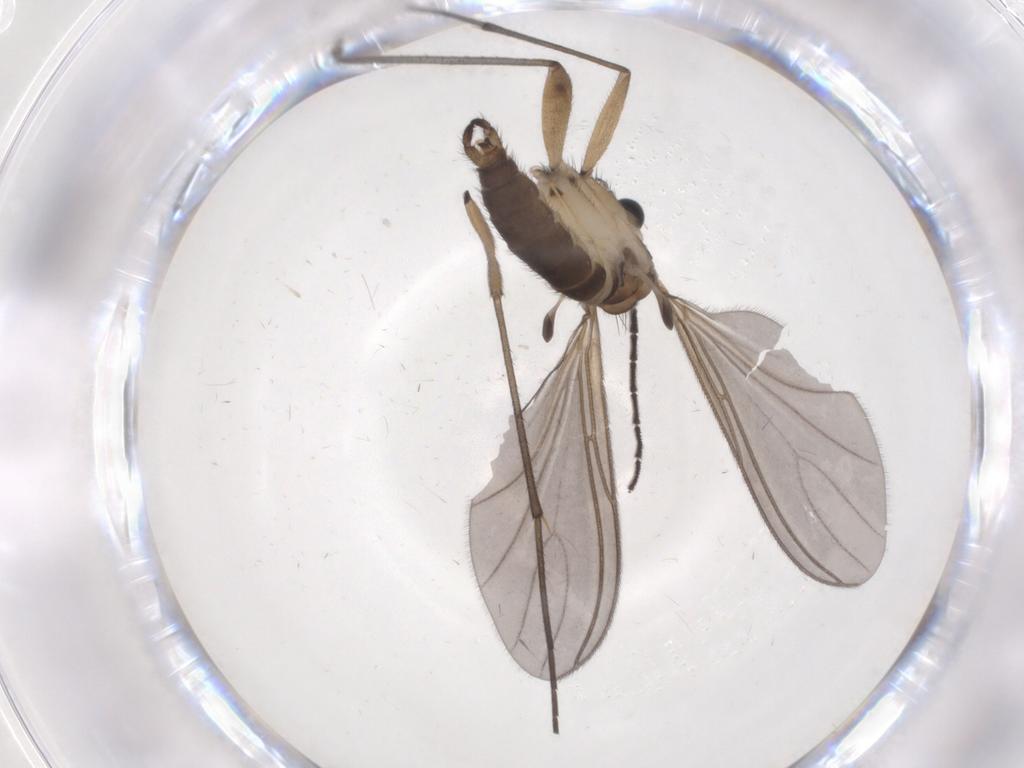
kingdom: Animalia
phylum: Arthropoda
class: Insecta
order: Diptera
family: Sciaridae
